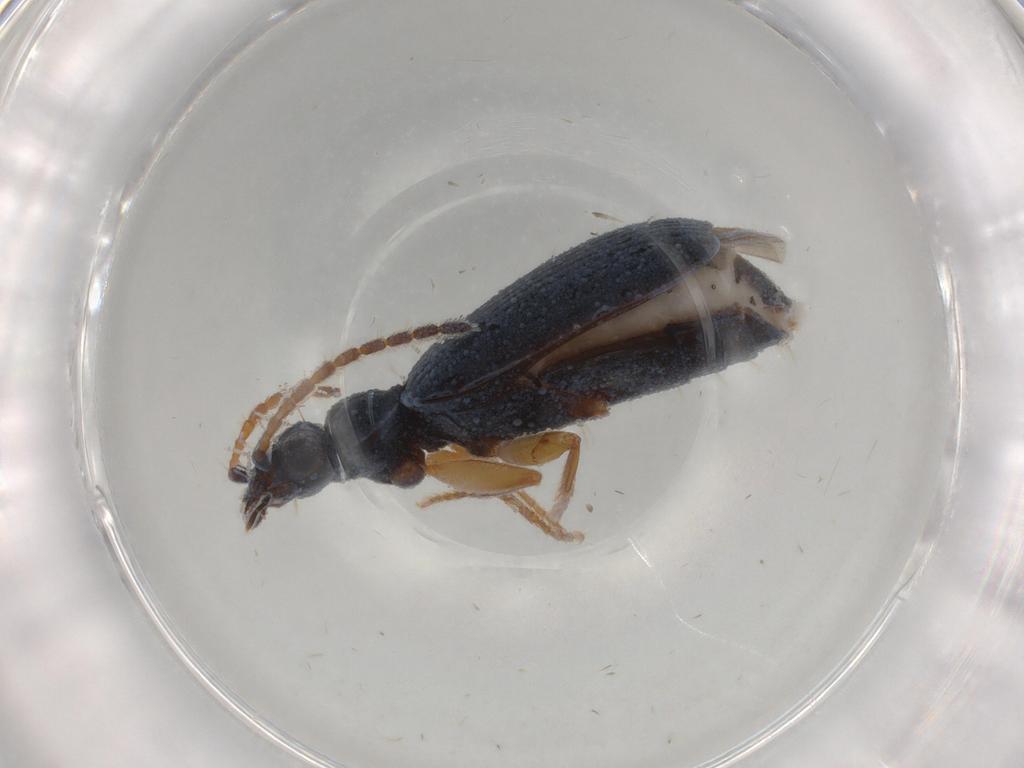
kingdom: Animalia
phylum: Arthropoda
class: Insecta
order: Coleoptera
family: Carabidae
